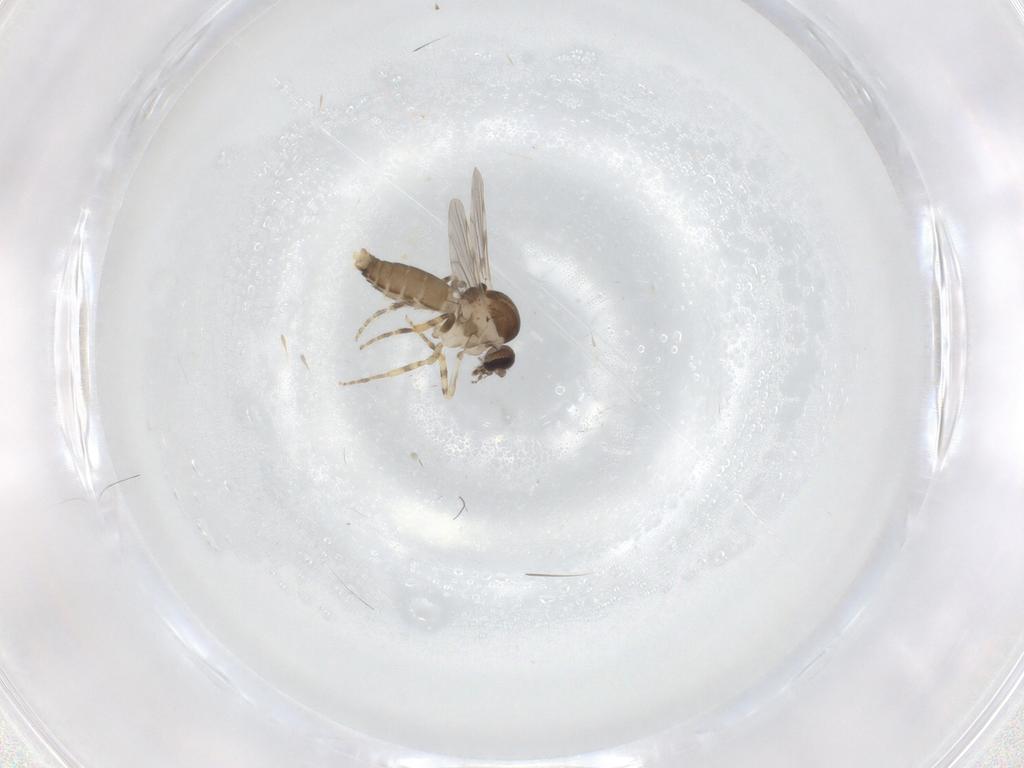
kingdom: Animalia
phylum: Arthropoda
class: Insecta
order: Diptera
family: Ceratopogonidae
